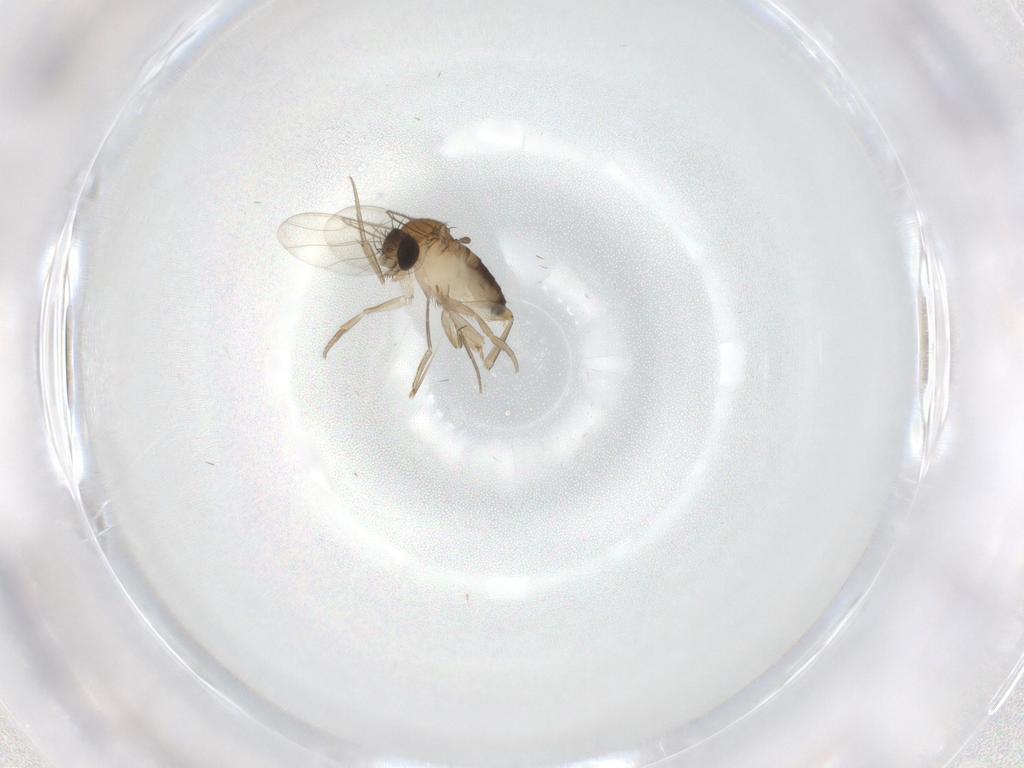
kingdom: Animalia
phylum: Arthropoda
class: Insecta
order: Diptera
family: Phoridae
